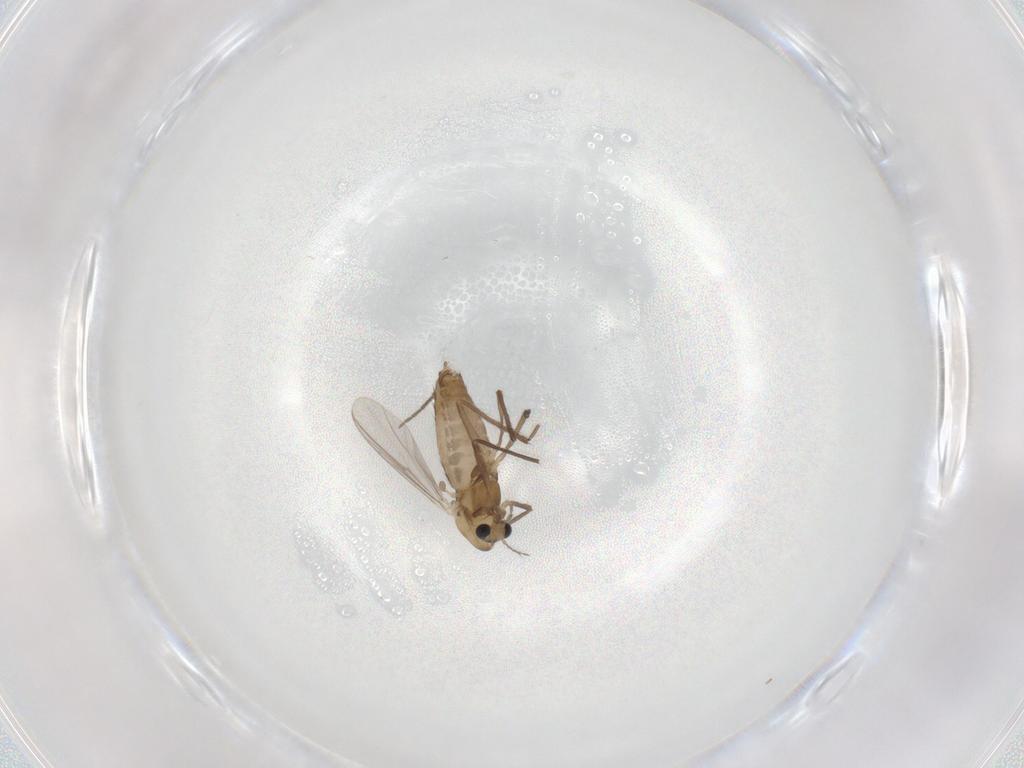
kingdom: Animalia
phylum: Arthropoda
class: Insecta
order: Diptera
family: Chironomidae
